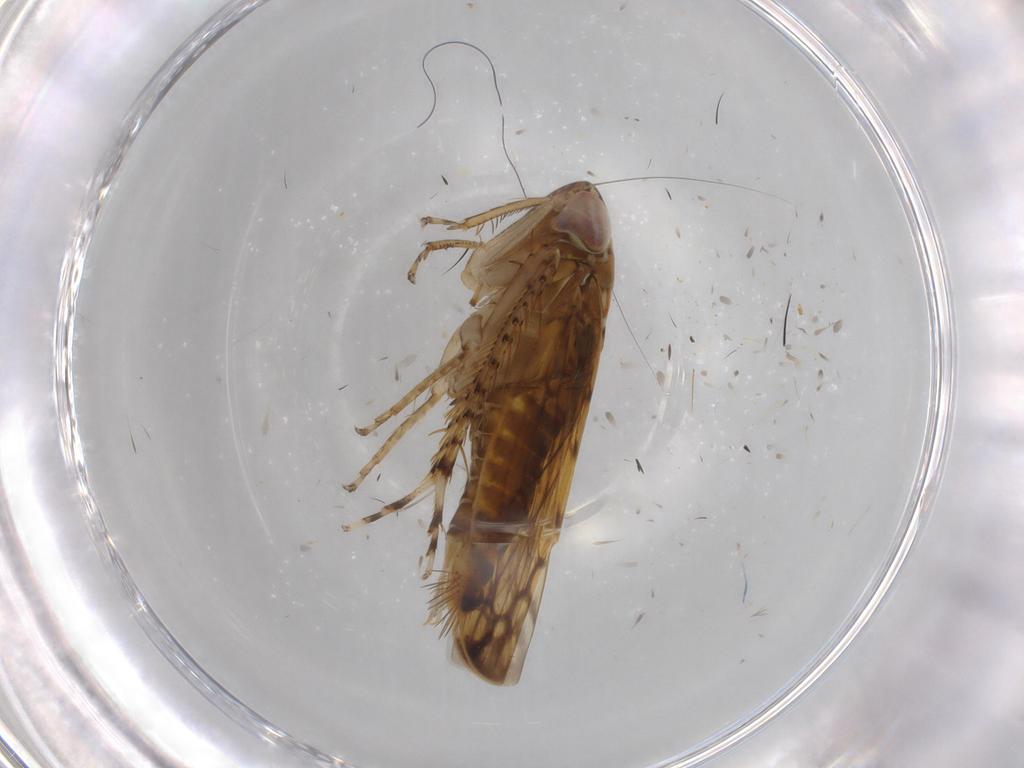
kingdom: Animalia
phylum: Arthropoda
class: Insecta
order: Hemiptera
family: Cicadellidae
